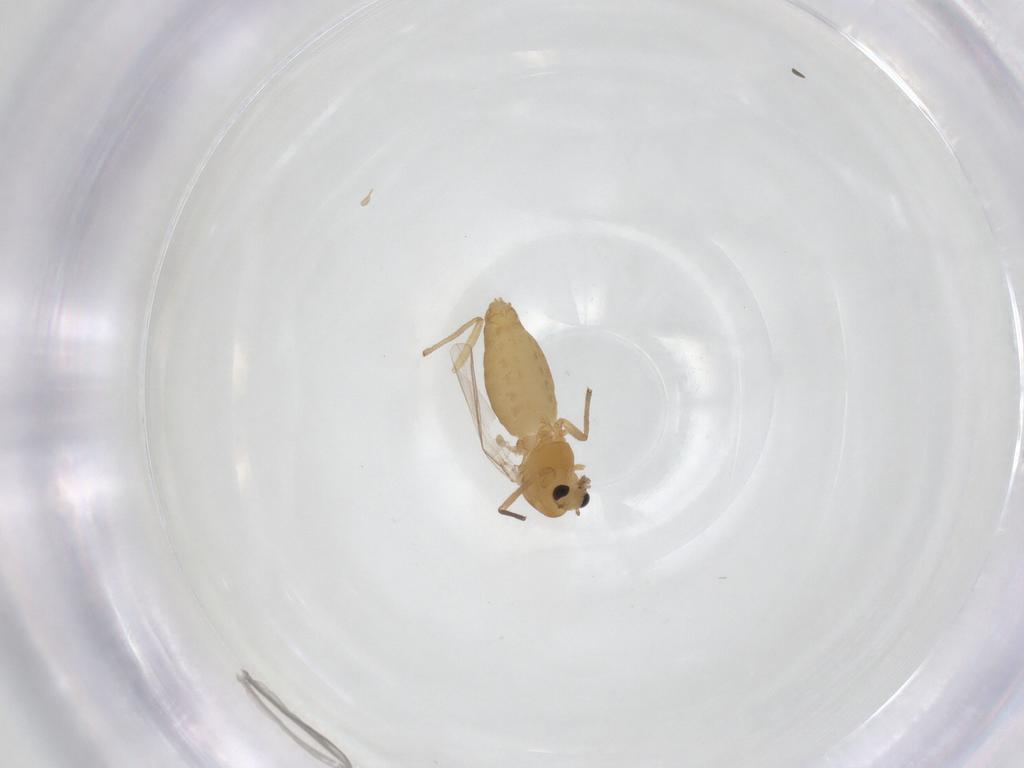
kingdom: Animalia
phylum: Arthropoda
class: Insecta
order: Diptera
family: Chironomidae
